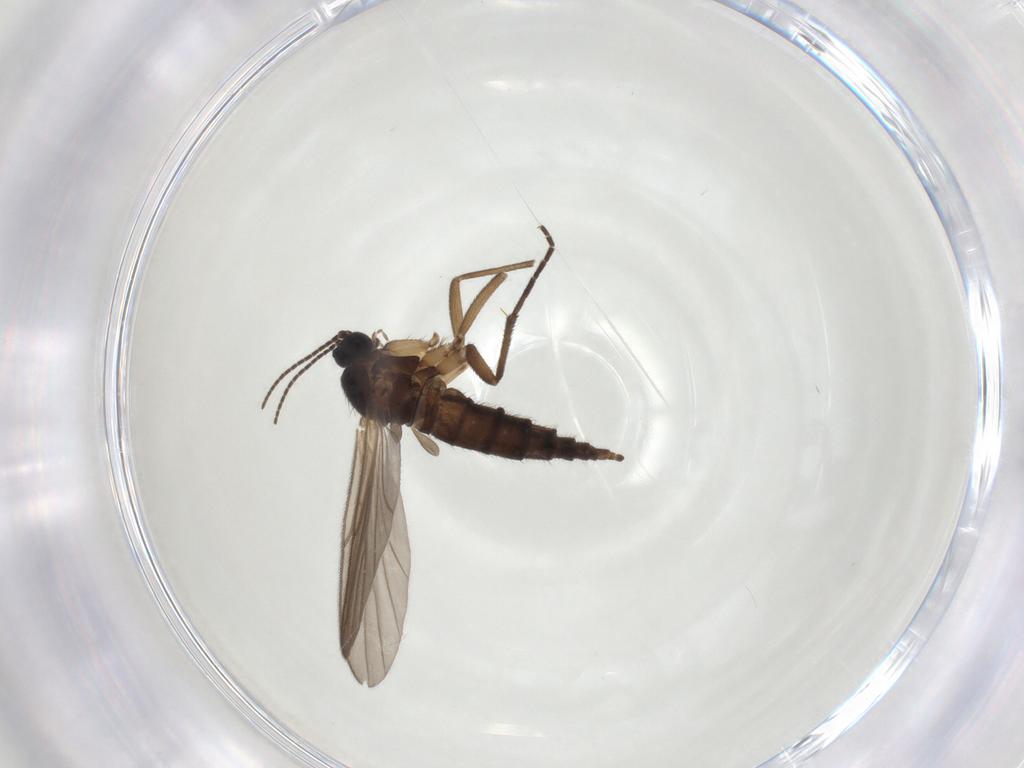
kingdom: Animalia
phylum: Arthropoda
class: Insecta
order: Diptera
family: Sciaridae
